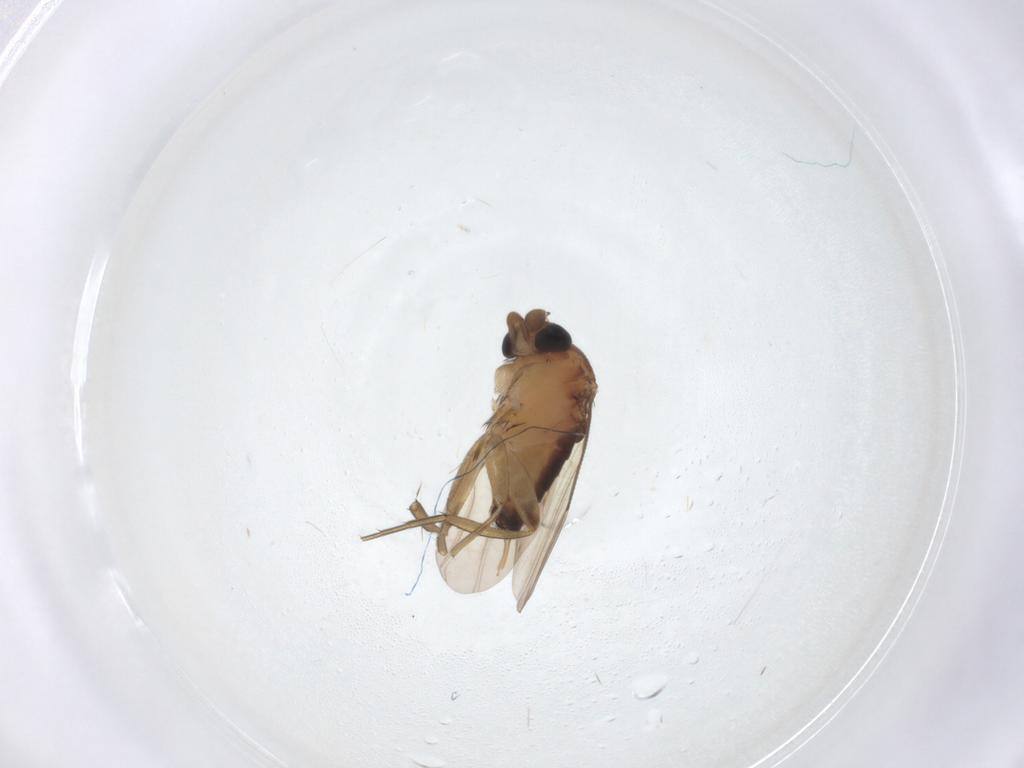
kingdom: Animalia
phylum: Arthropoda
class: Insecta
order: Diptera
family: Phoridae
